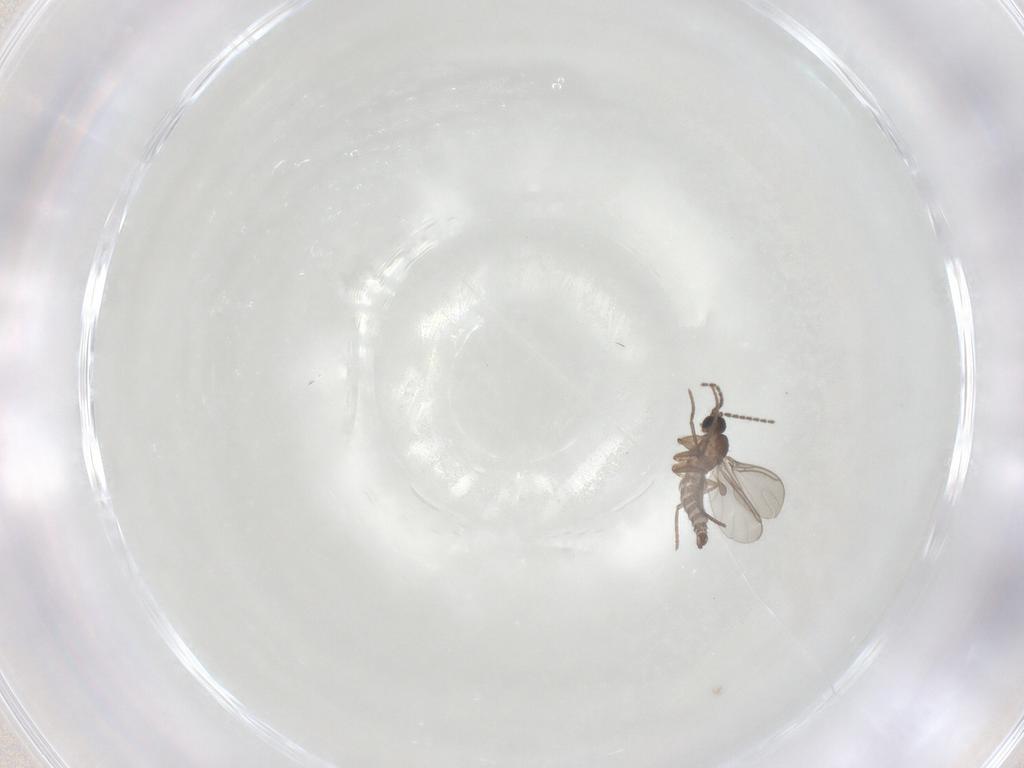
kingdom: Animalia
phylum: Arthropoda
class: Insecta
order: Diptera
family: Sciaridae
